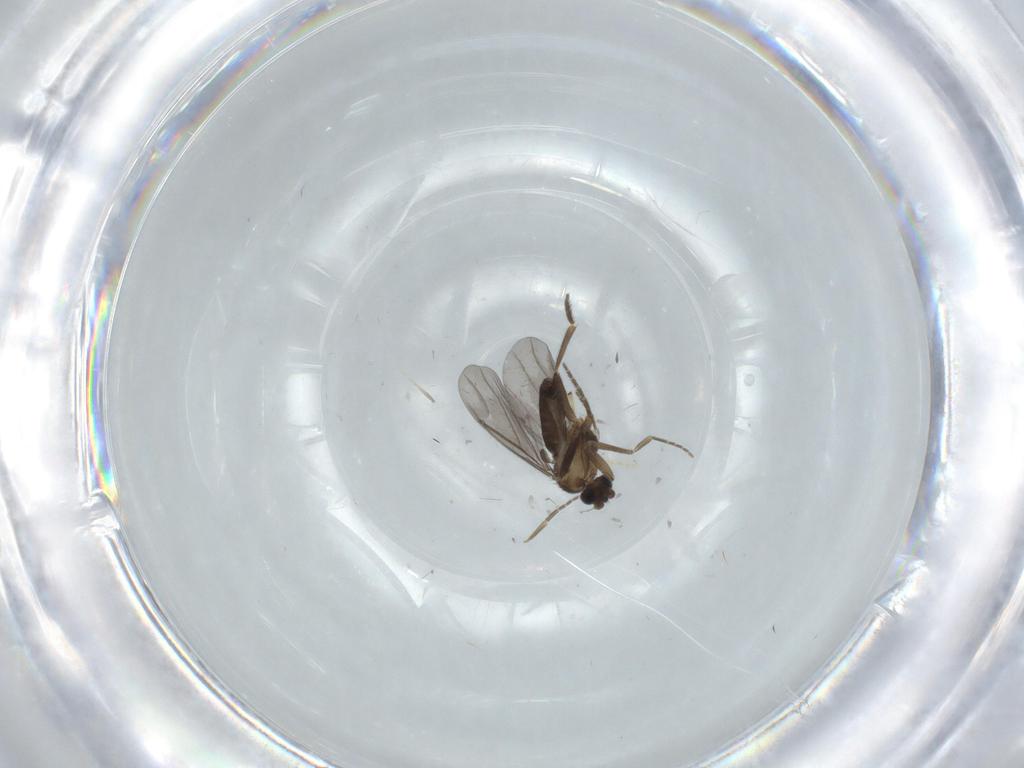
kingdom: Animalia
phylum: Arthropoda
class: Insecta
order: Diptera
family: Chironomidae
